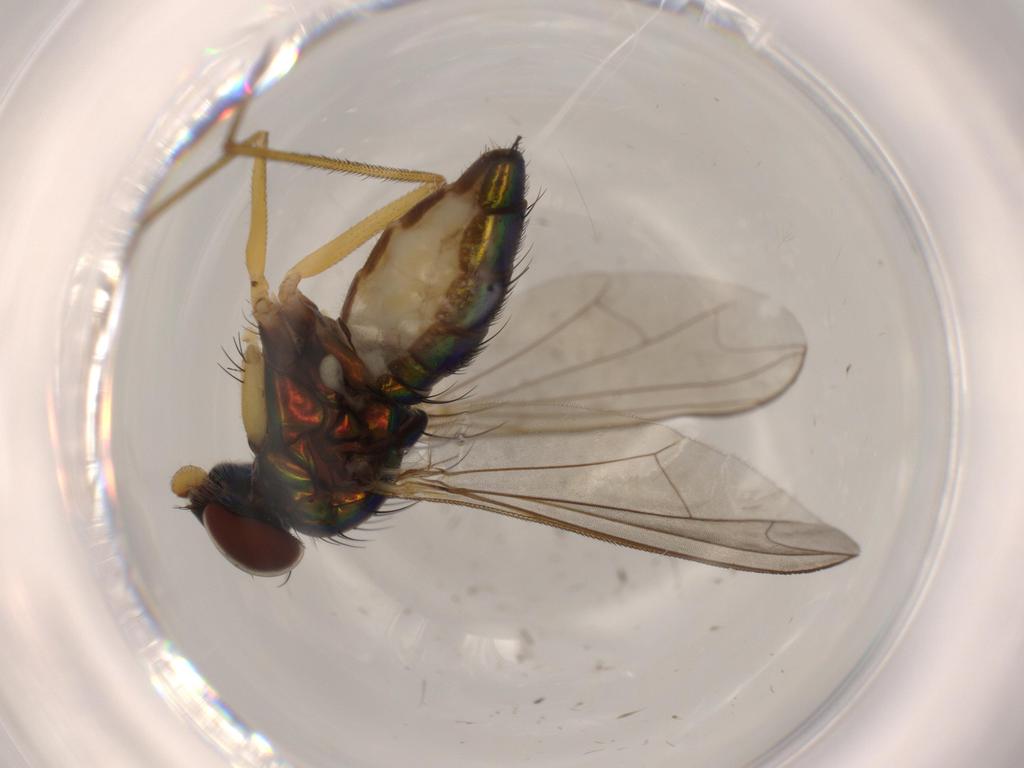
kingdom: Animalia
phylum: Arthropoda
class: Insecta
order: Diptera
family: Dolichopodidae
